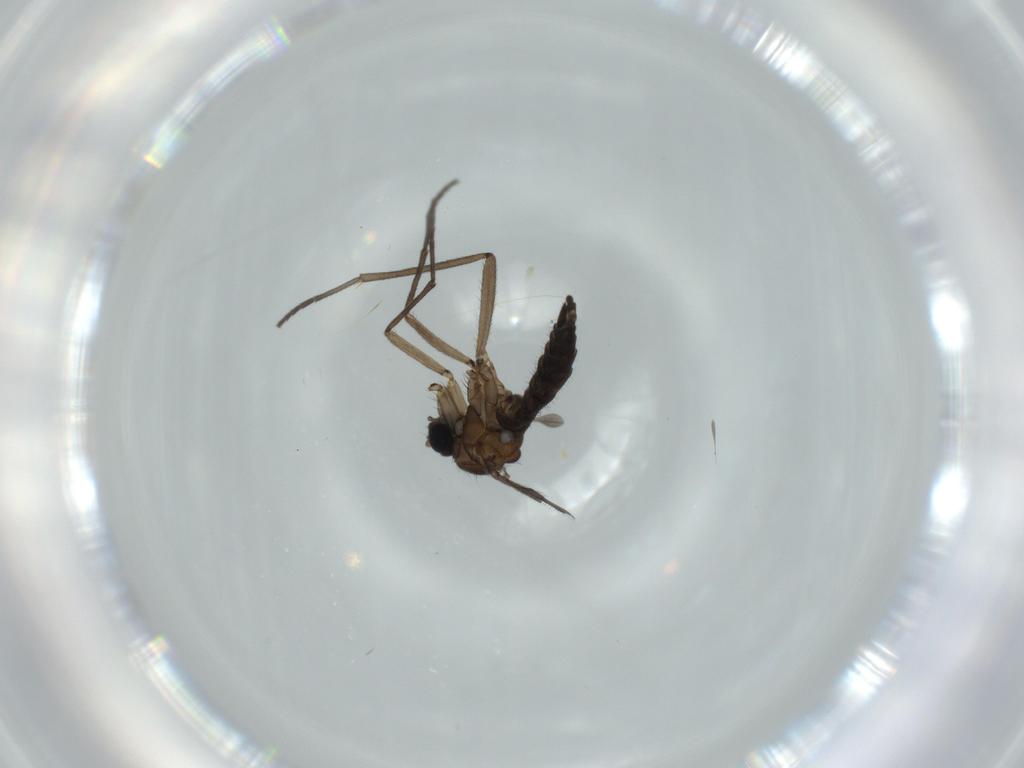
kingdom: Animalia
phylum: Arthropoda
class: Insecta
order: Diptera
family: Sciaridae
